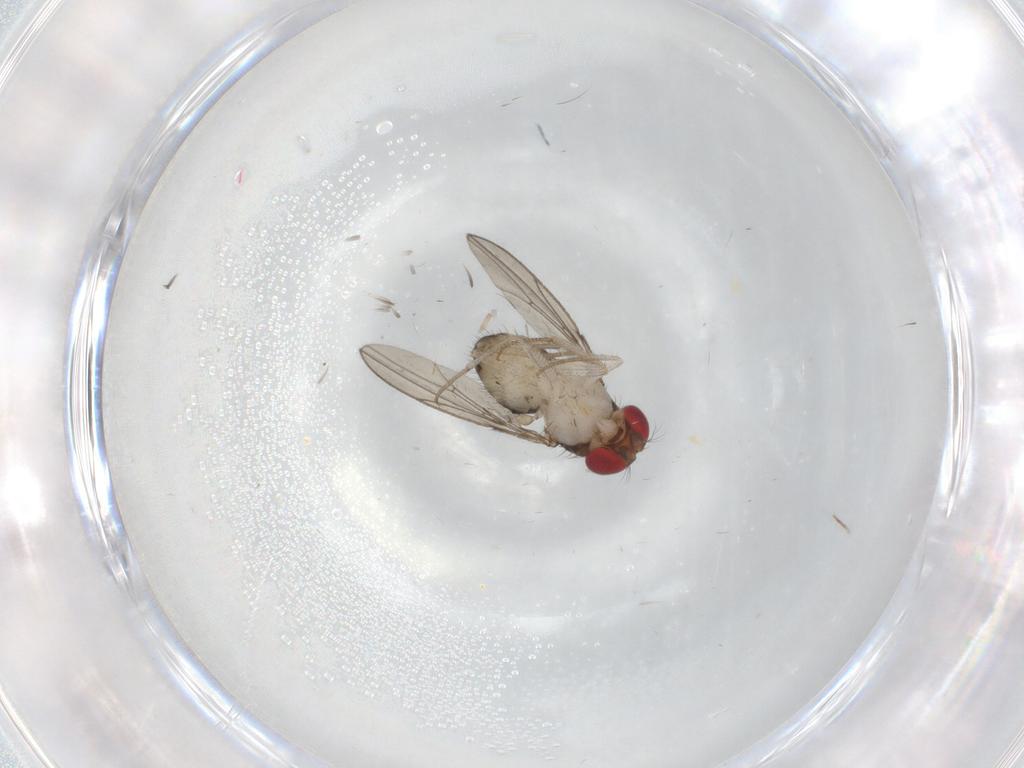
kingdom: Animalia
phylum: Arthropoda
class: Insecta
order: Diptera
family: Drosophilidae
